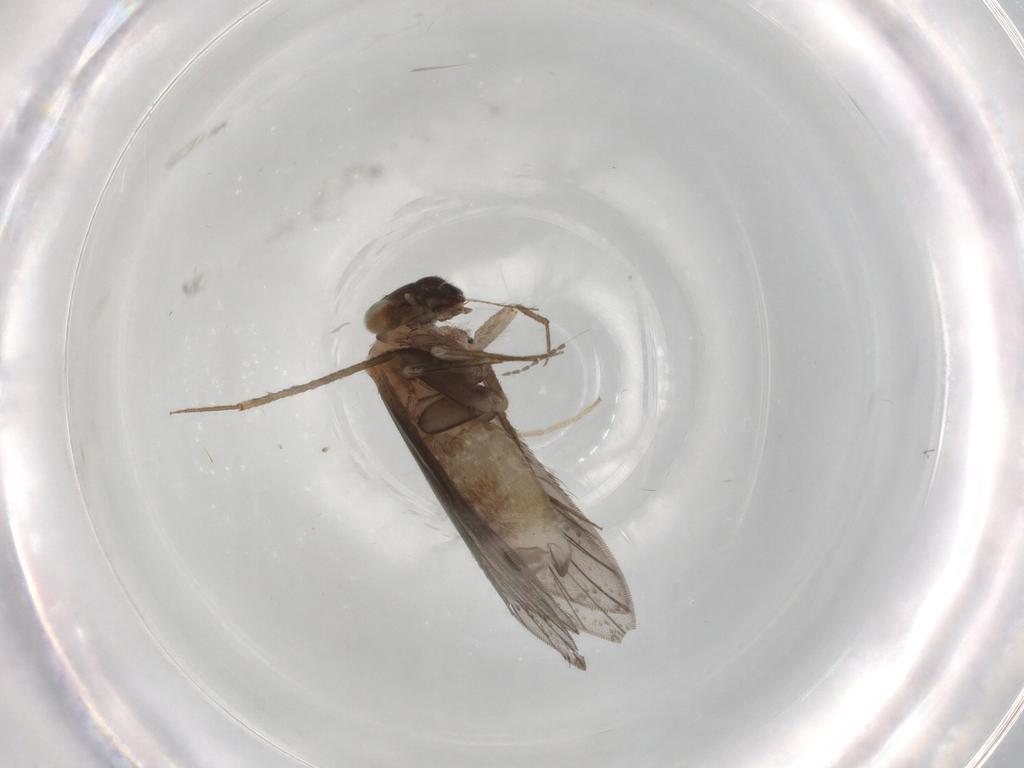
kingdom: Animalia
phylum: Arthropoda
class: Insecta
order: Psocodea
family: Lepidopsocidae
